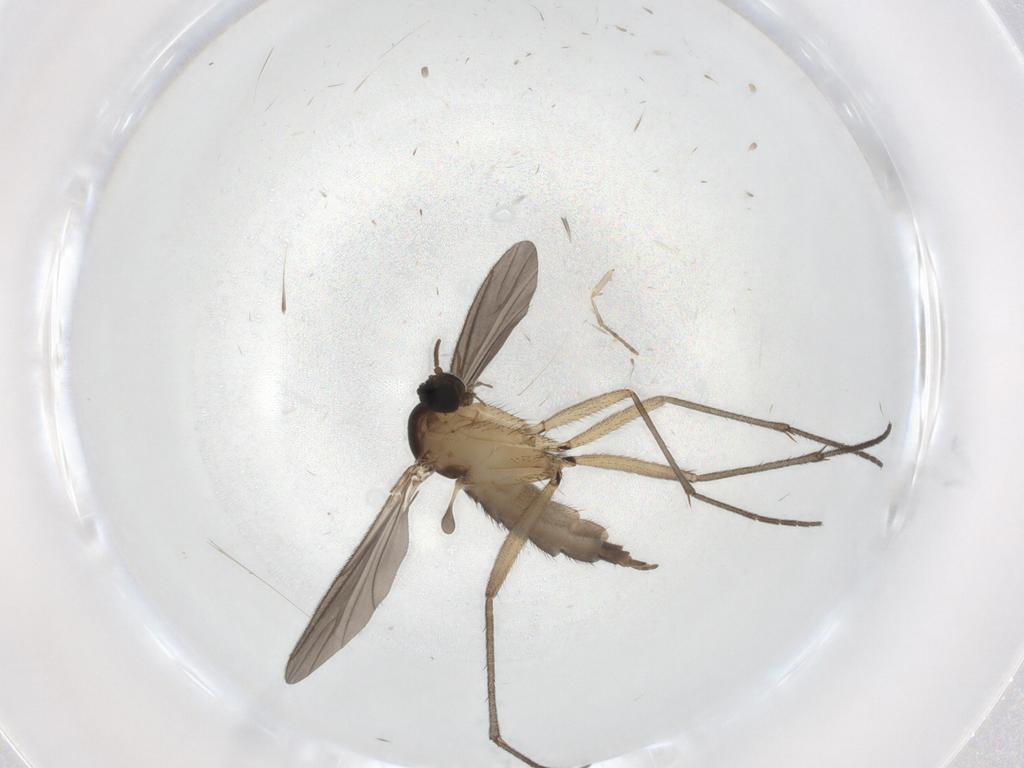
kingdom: Animalia
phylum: Arthropoda
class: Insecta
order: Diptera
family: Sciaridae
